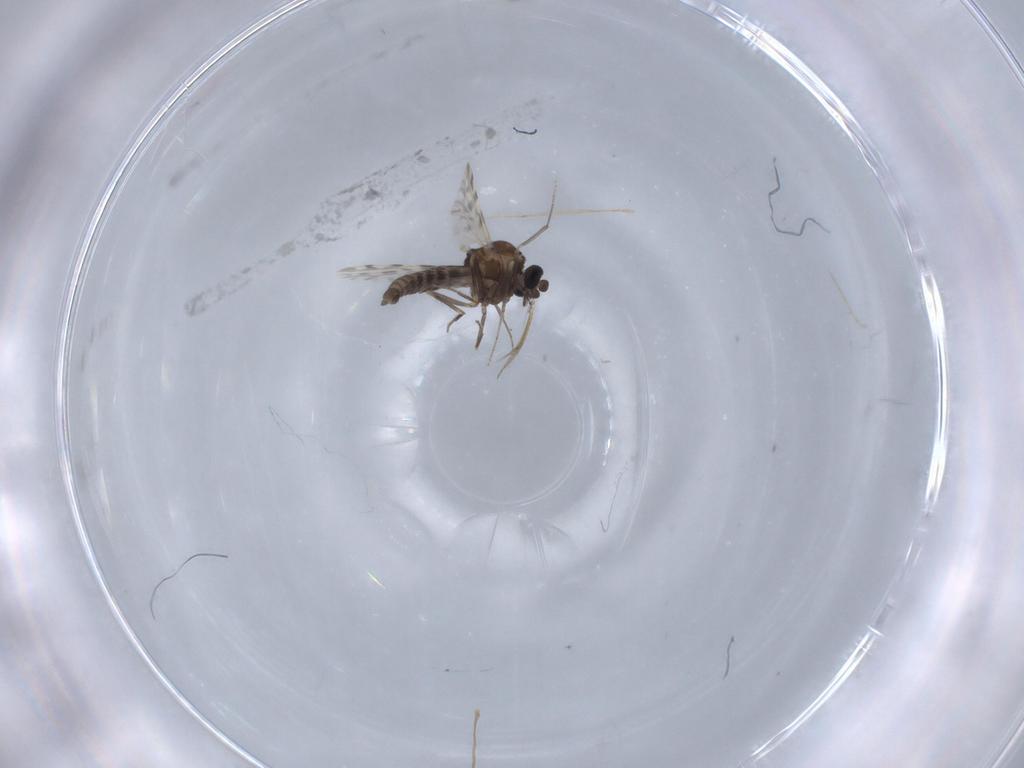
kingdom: Animalia
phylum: Arthropoda
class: Insecta
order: Diptera
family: Ceratopogonidae
